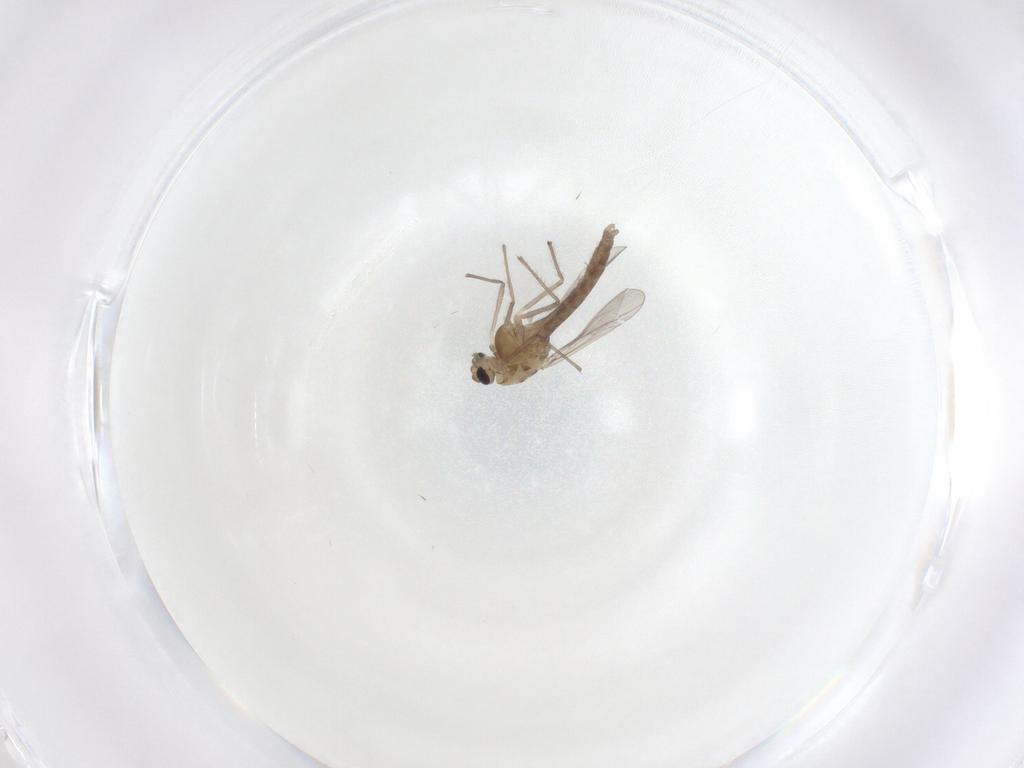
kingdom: Animalia
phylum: Arthropoda
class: Insecta
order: Diptera
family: Chironomidae
